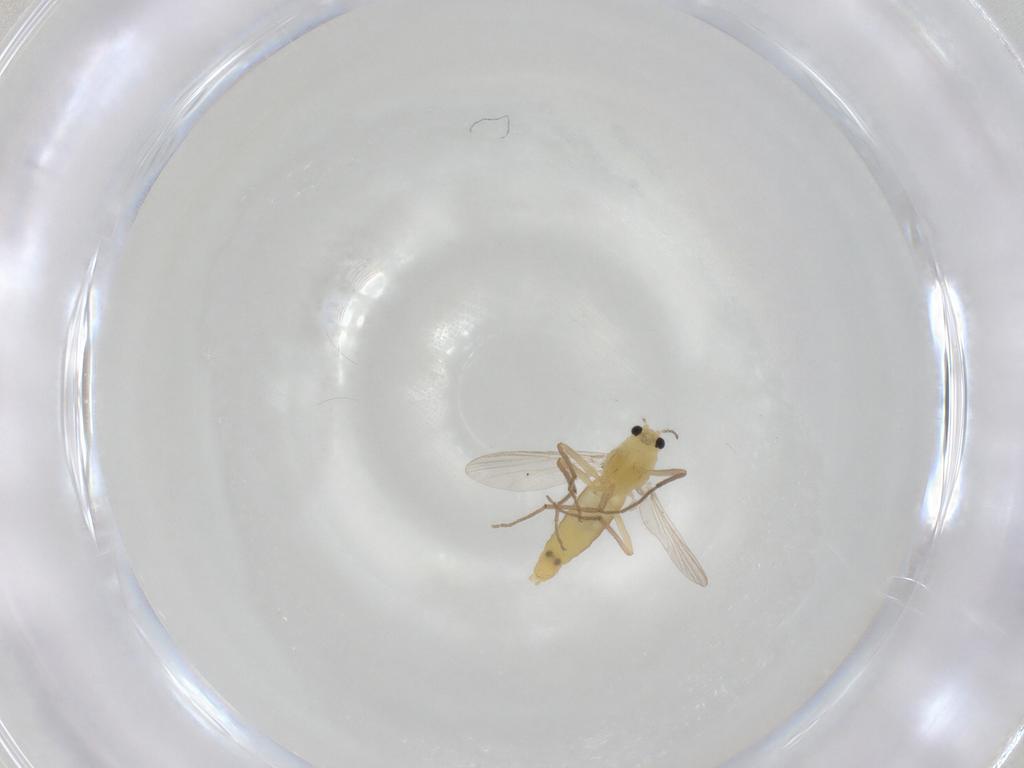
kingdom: Animalia
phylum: Arthropoda
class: Insecta
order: Diptera
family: Chironomidae
